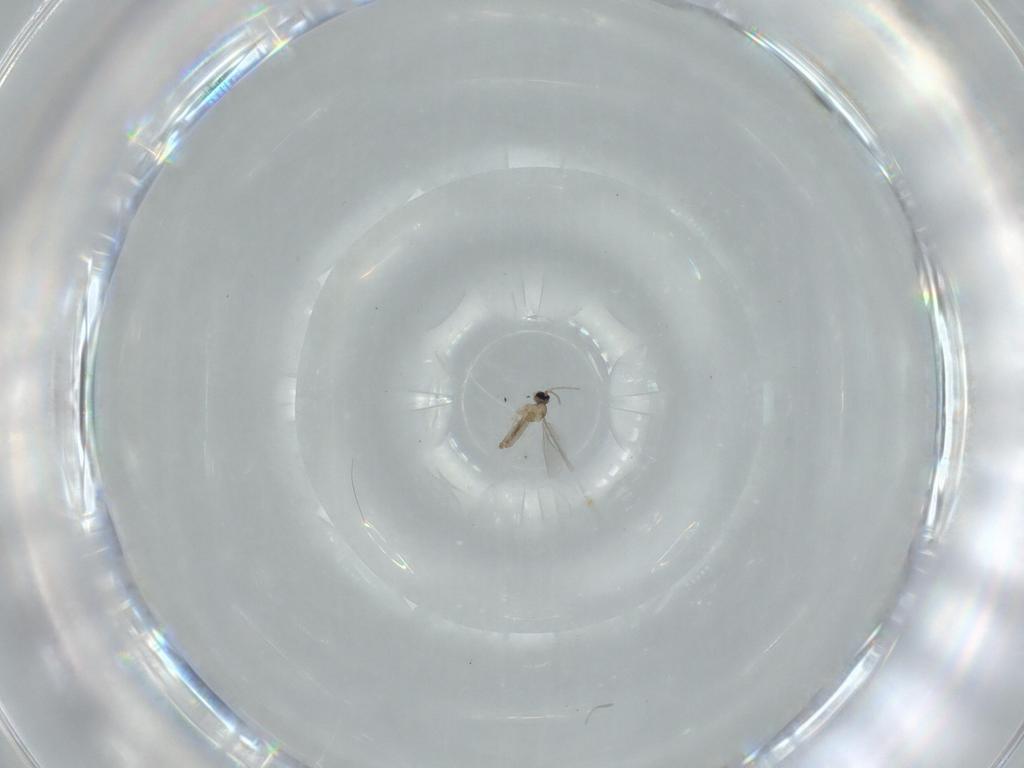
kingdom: Animalia
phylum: Arthropoda
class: Insecta
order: Diptera
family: Cecidomyiidae
